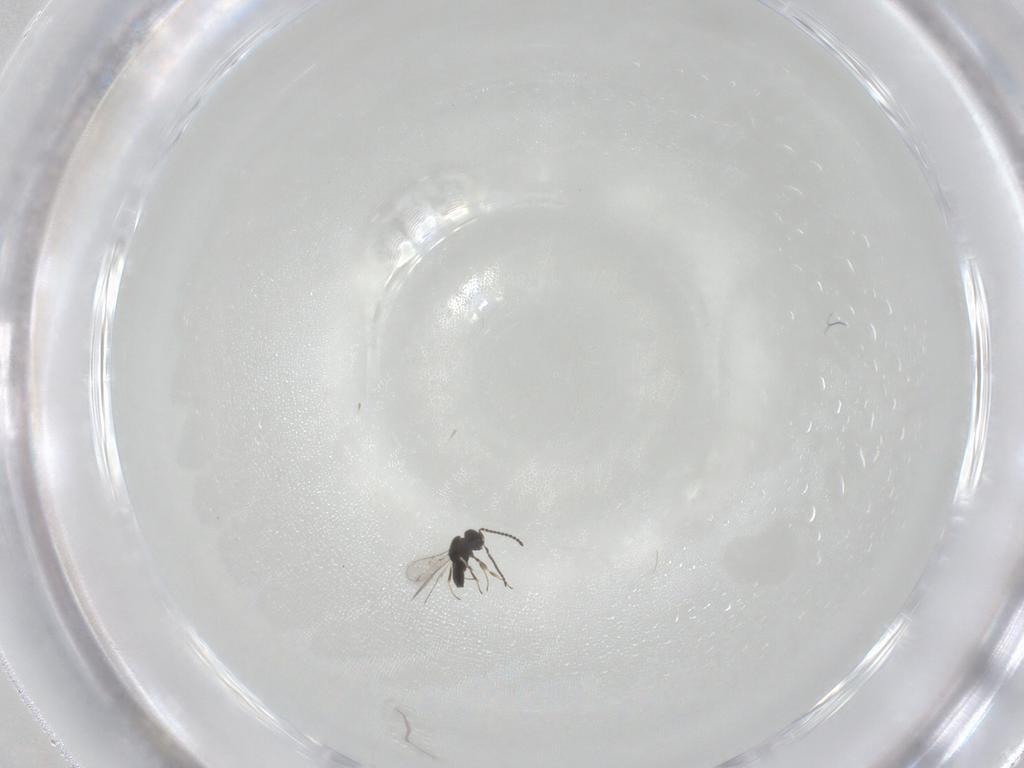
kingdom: Animalia
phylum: Arthropoda
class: Insecta
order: Hymenoptera
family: Scelionidae
